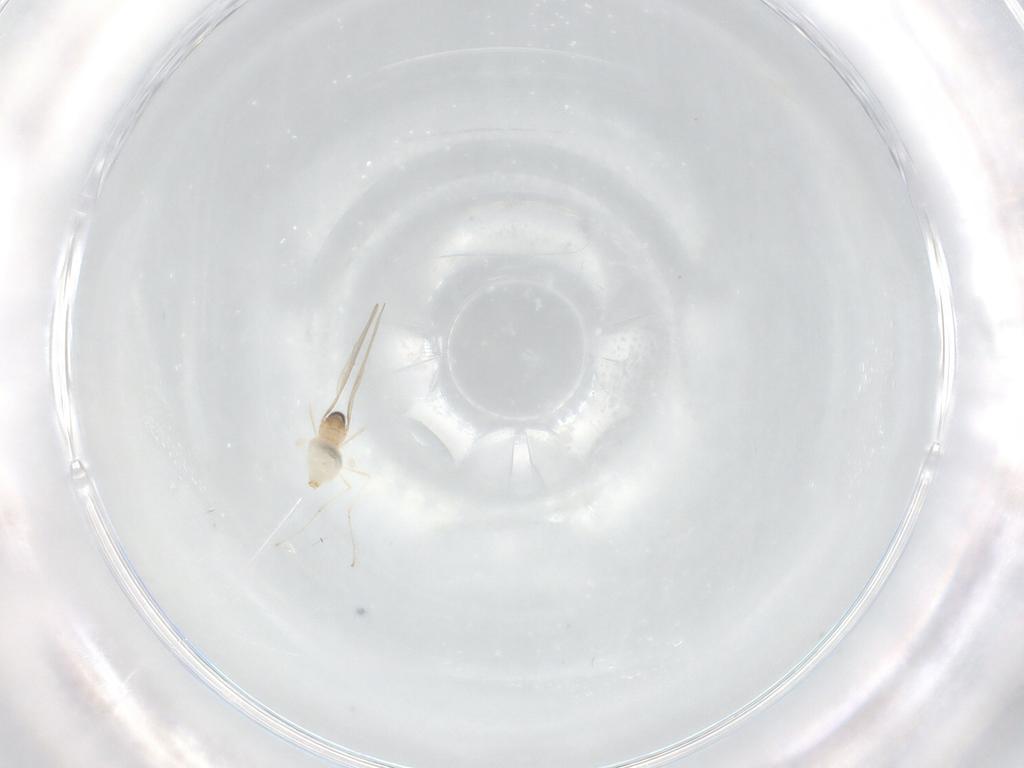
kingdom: Animalia
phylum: Arthropoda
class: Insecta
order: Diptera
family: Cecidomyiidae
